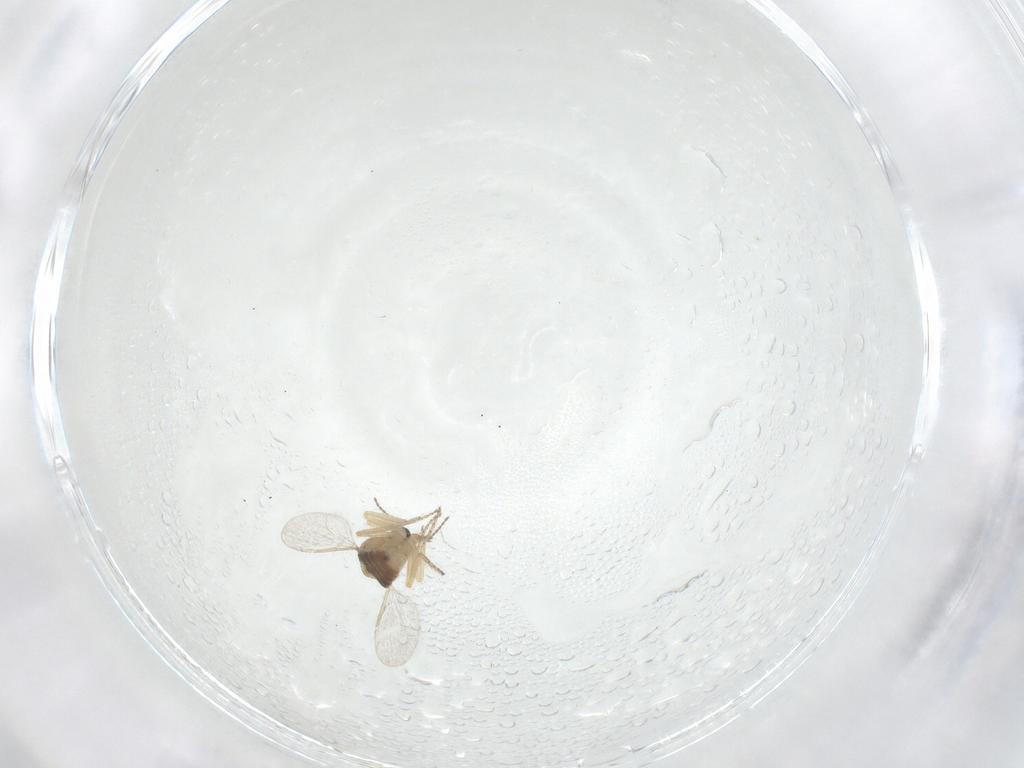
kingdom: Animalia
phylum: Arthropoda
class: Insecta
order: Diptera
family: Ceratopogonidae
